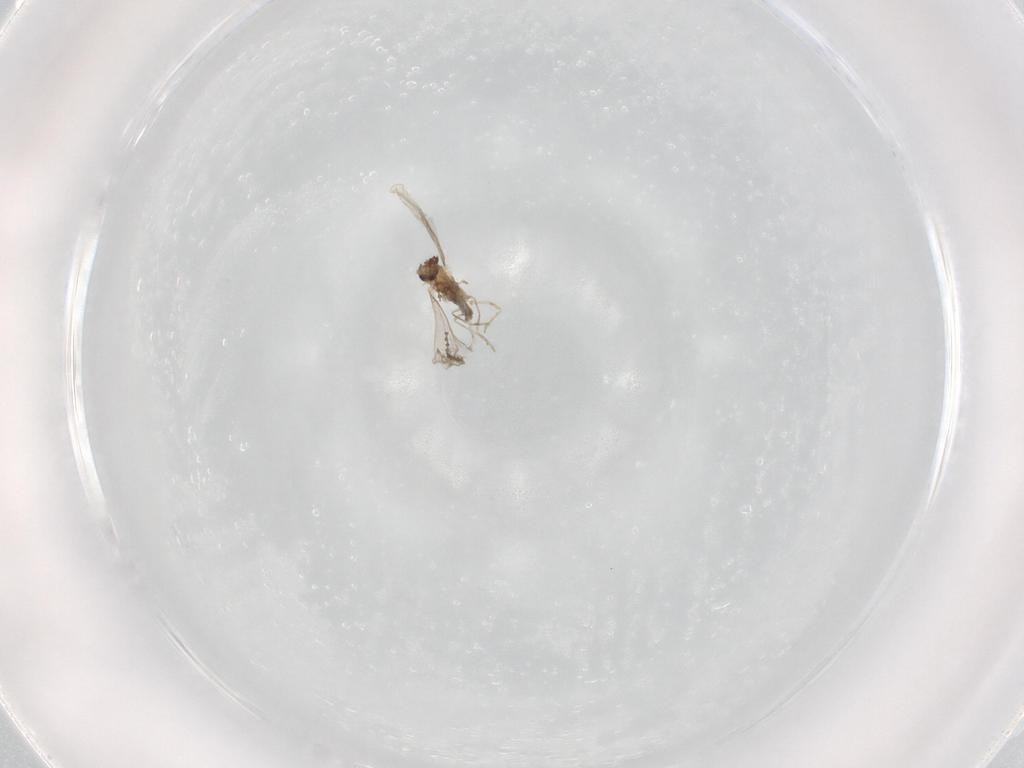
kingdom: Animalia
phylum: Arthropoda
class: Insecta
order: Diptera
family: Cecidomyiidae
